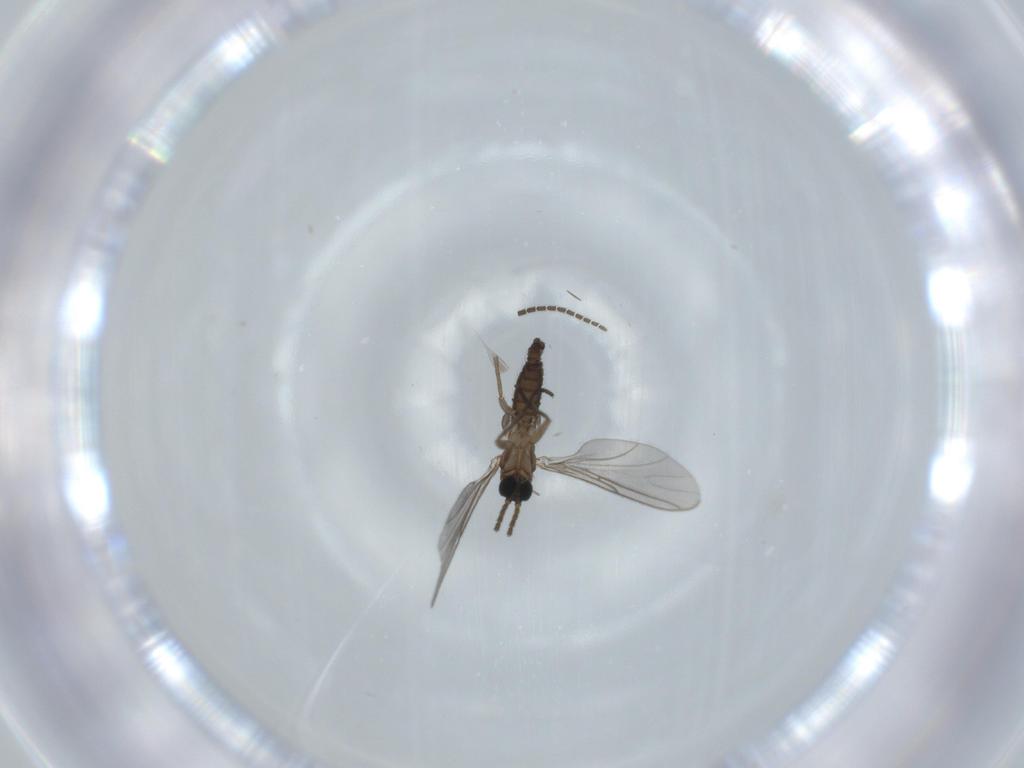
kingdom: Animalia
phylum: Arthropoda
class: Insecta
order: Diptera
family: Sciaridae
